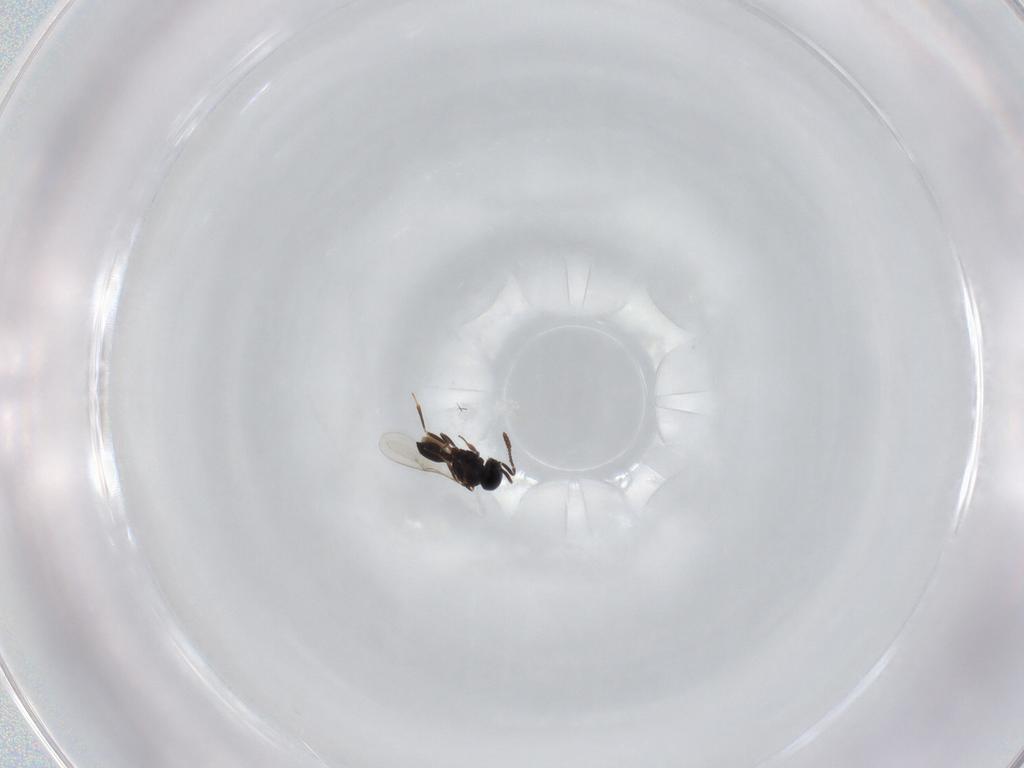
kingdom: Animalia
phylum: Arthropoda
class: Insecta
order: Hymenoptera
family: Scelionidae
